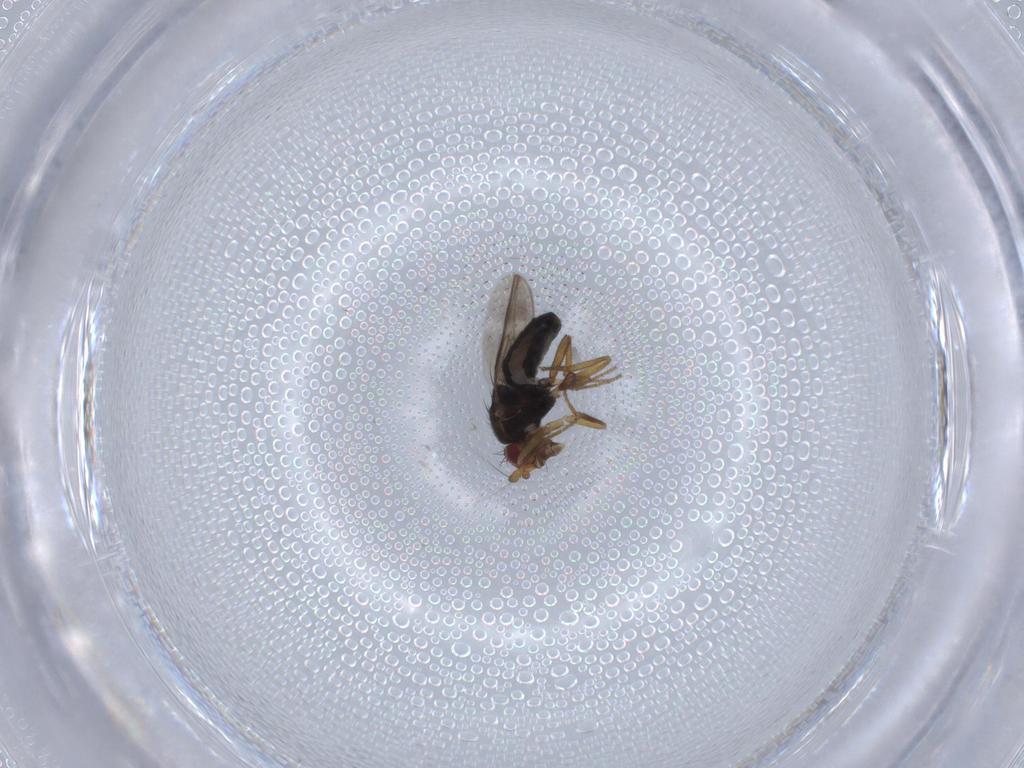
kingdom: Animalia
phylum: Arthropoda
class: Insecta
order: Diptera
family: Sphaeroceridae
